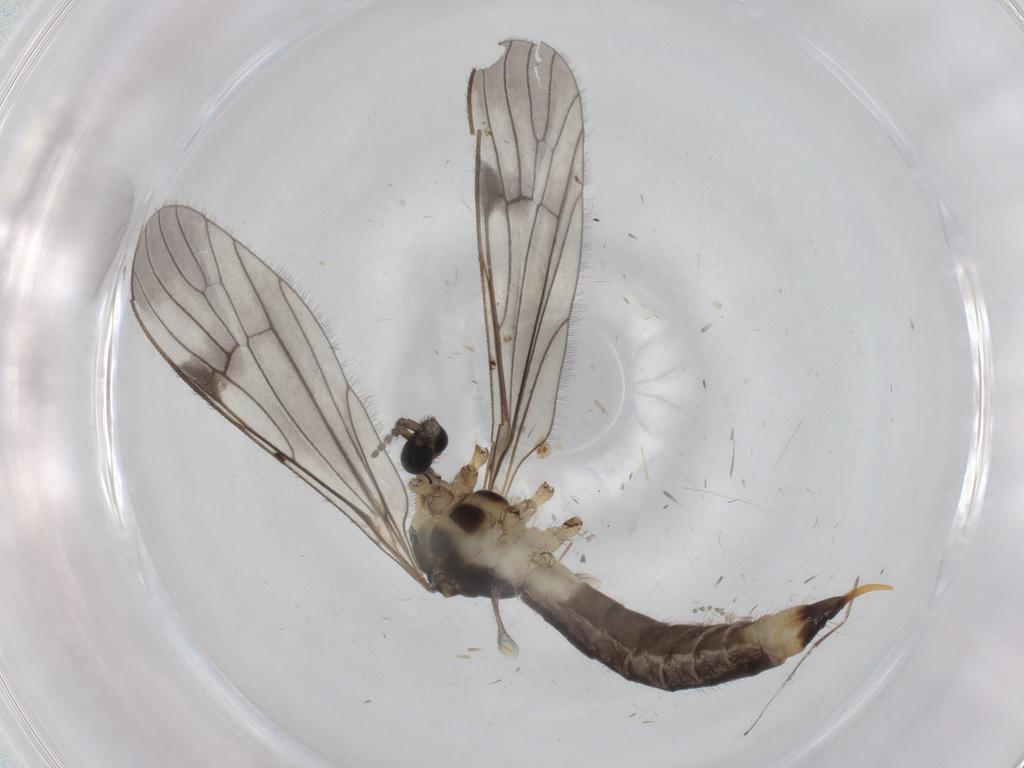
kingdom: Animalia
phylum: Arthropoda
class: Insecta
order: Diptera
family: Limoniidae
